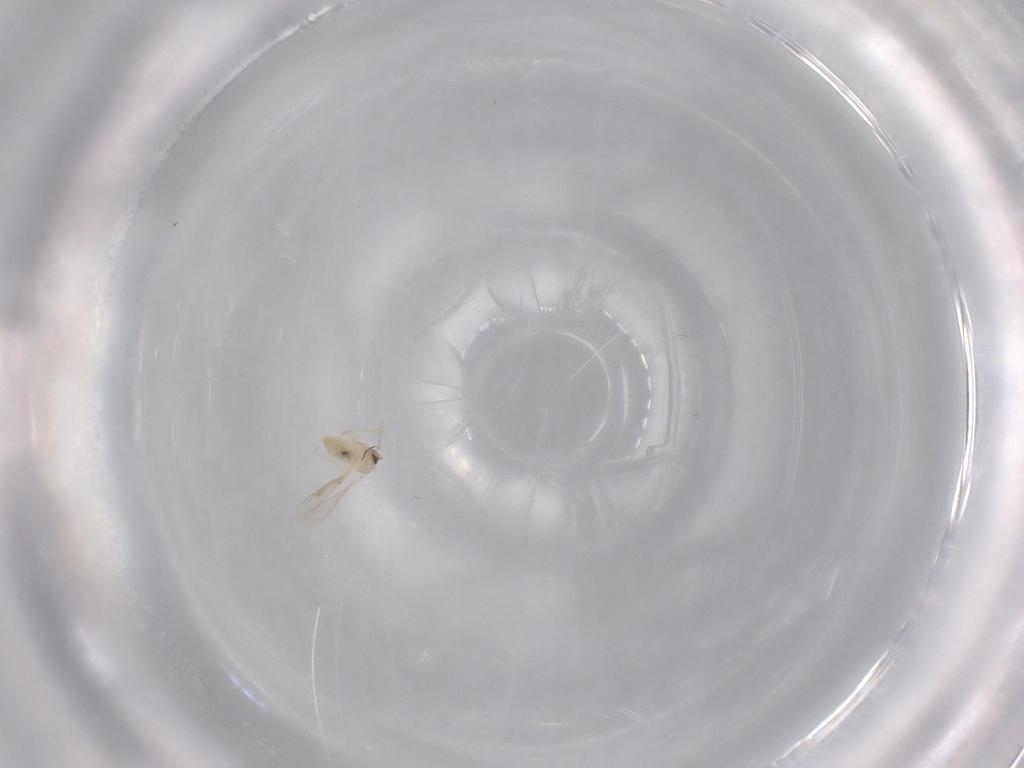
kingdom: Animalia
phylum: Arthropoda
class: Insecta
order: Diptera
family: Cecidomyiidae
